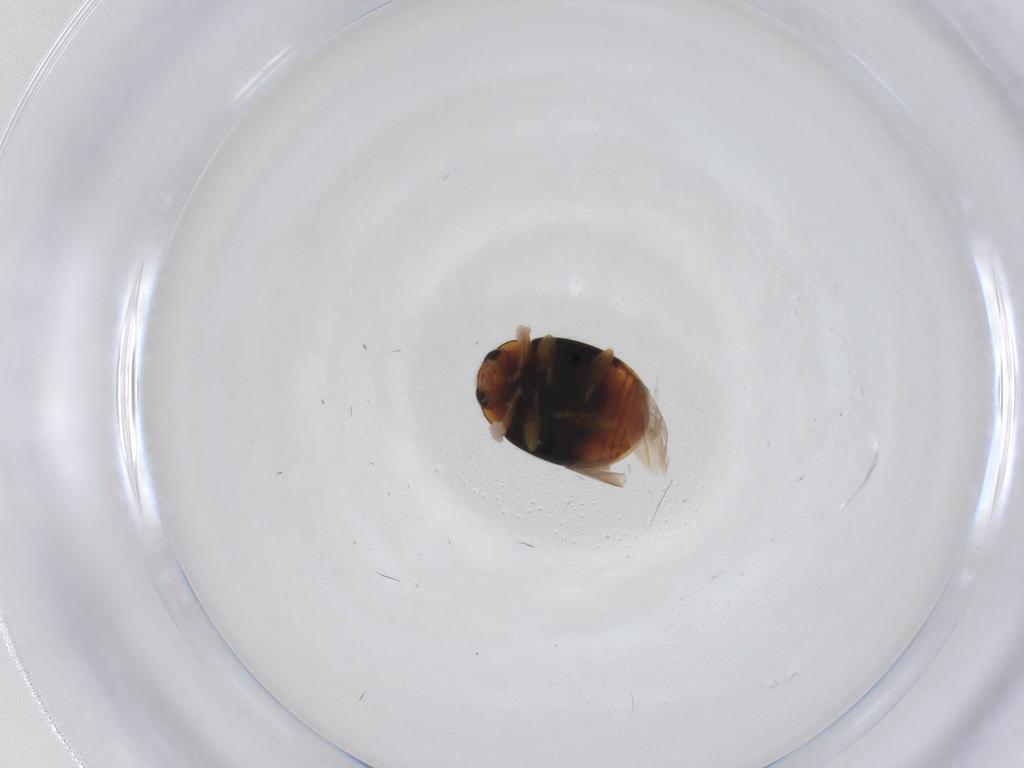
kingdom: Animalia
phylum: Arthropoda
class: Insecta
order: Coleoptera
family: Coccinellidae
